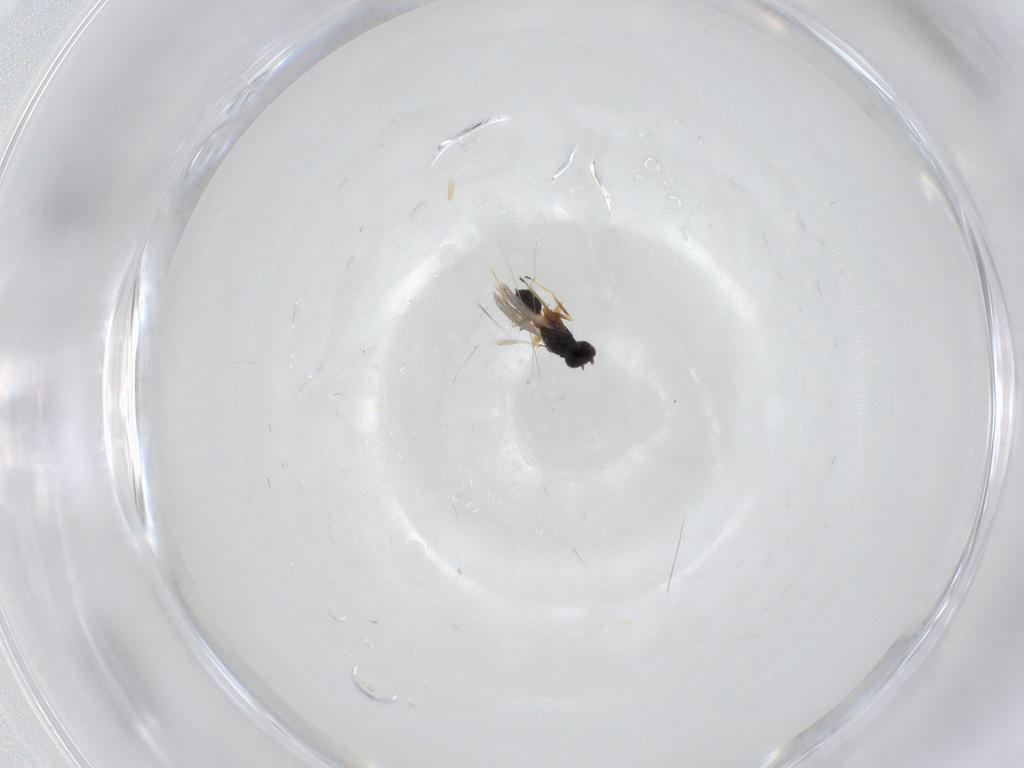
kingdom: Animalia
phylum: Arthropoda
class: Insecta
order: Hymenoptera
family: Mymaridae
